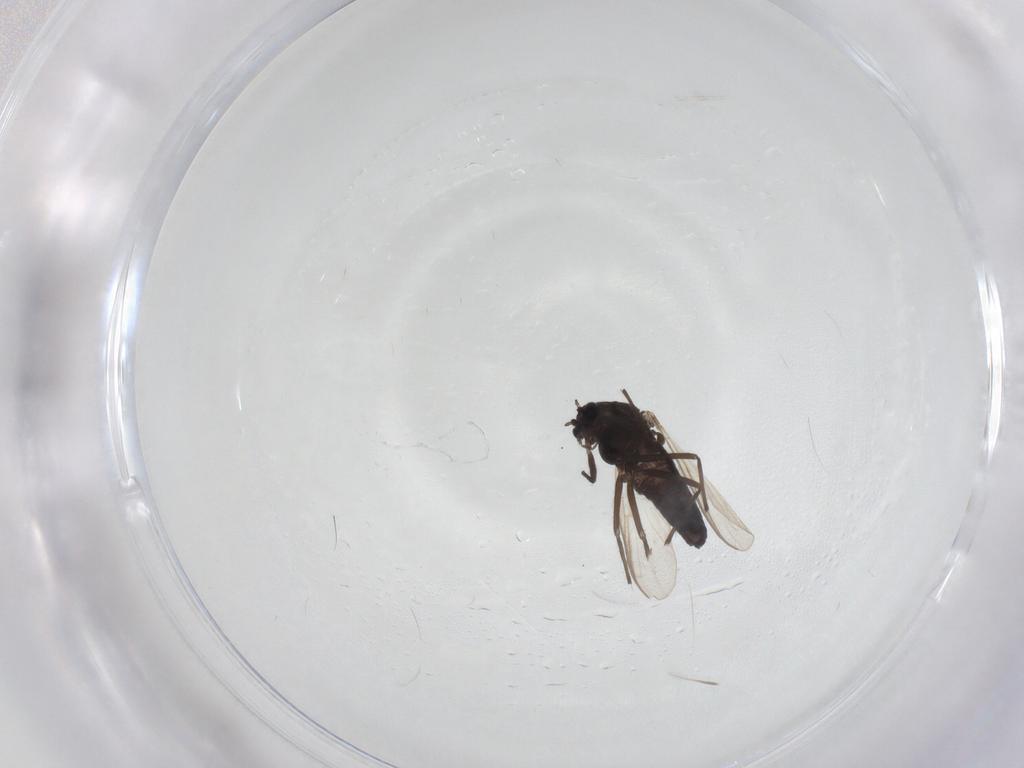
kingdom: Animalia
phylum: Arthropoda
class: Insecta
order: Diptera
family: Chironomidae
